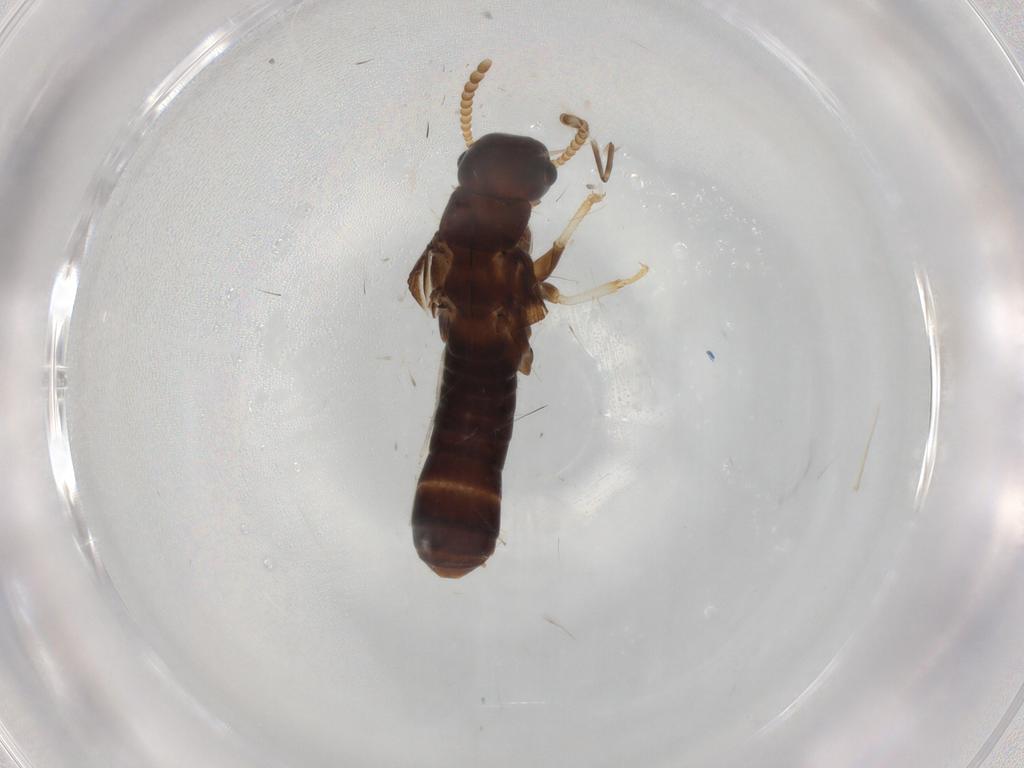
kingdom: Animalia
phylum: Arthropoda
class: Insecta
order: Blattodea
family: Kalotermitidae
